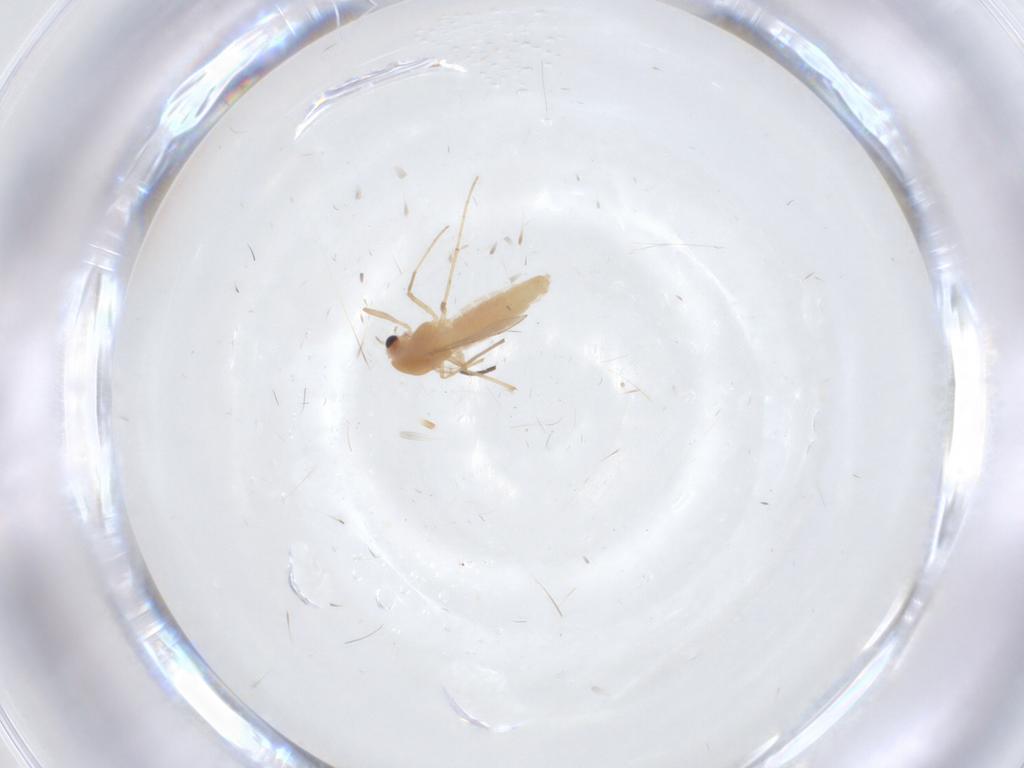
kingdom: Animalia
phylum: Arthropoda
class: Insecta
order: Diptera
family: Chironomidae
